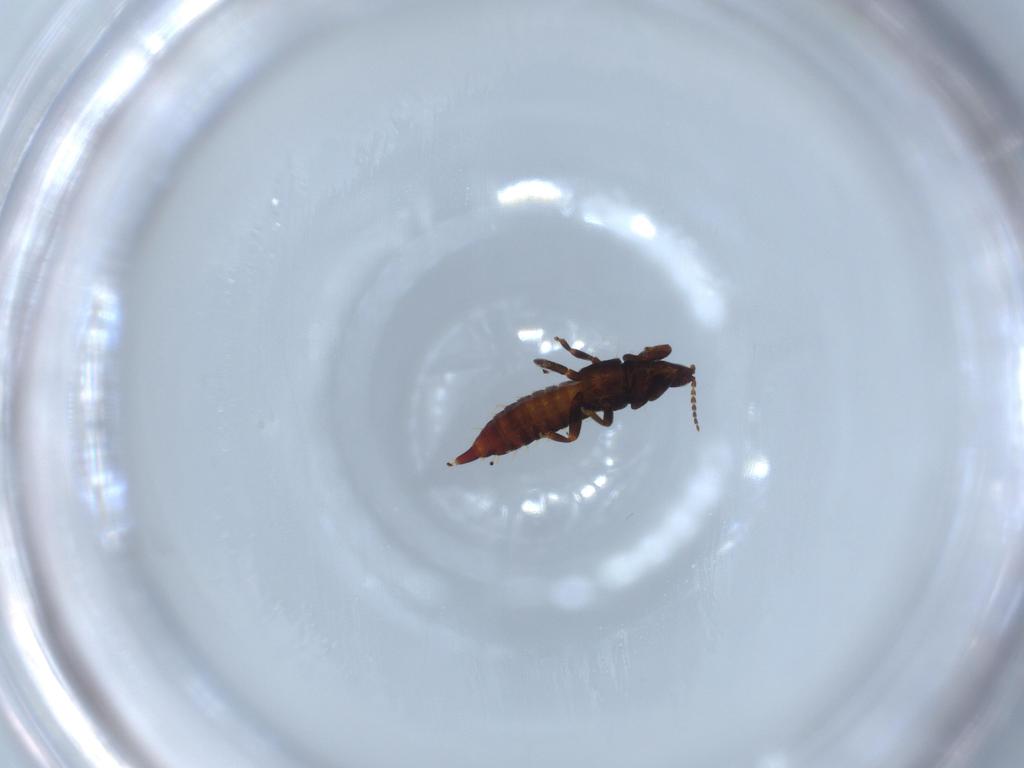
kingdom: Animalia
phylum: Arthropoda
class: Insecta
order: Thysanoptera
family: Phlaeothripidae
